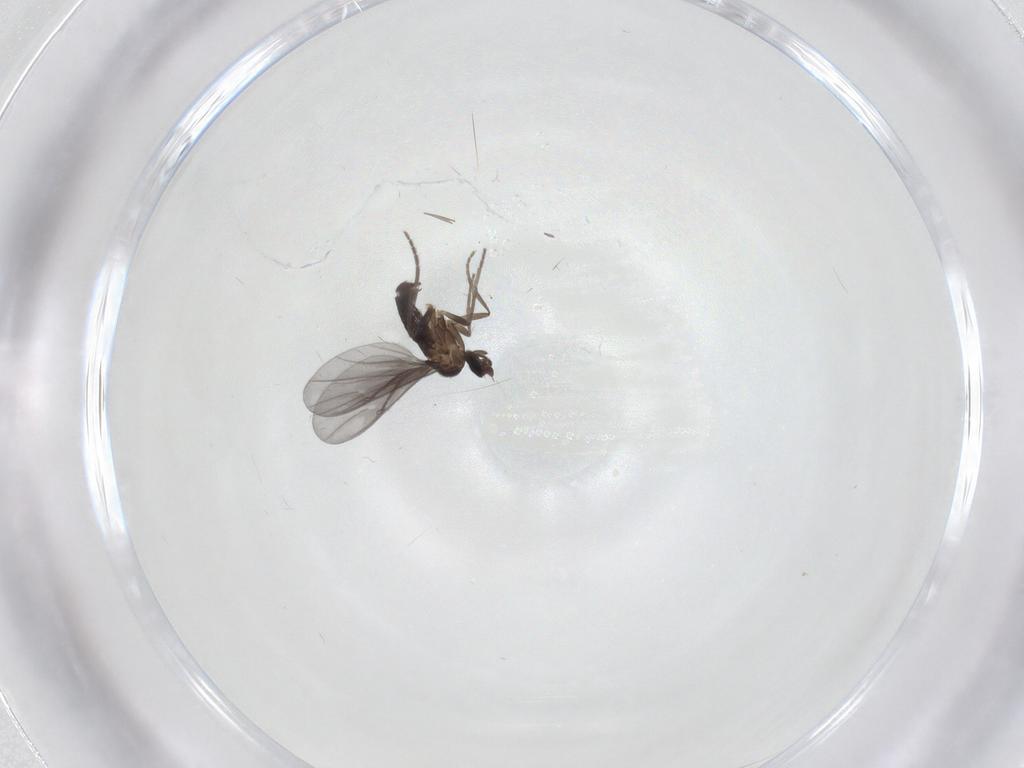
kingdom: Animalia
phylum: Arthropoda
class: Insecta
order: Diptera
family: Phoridae
